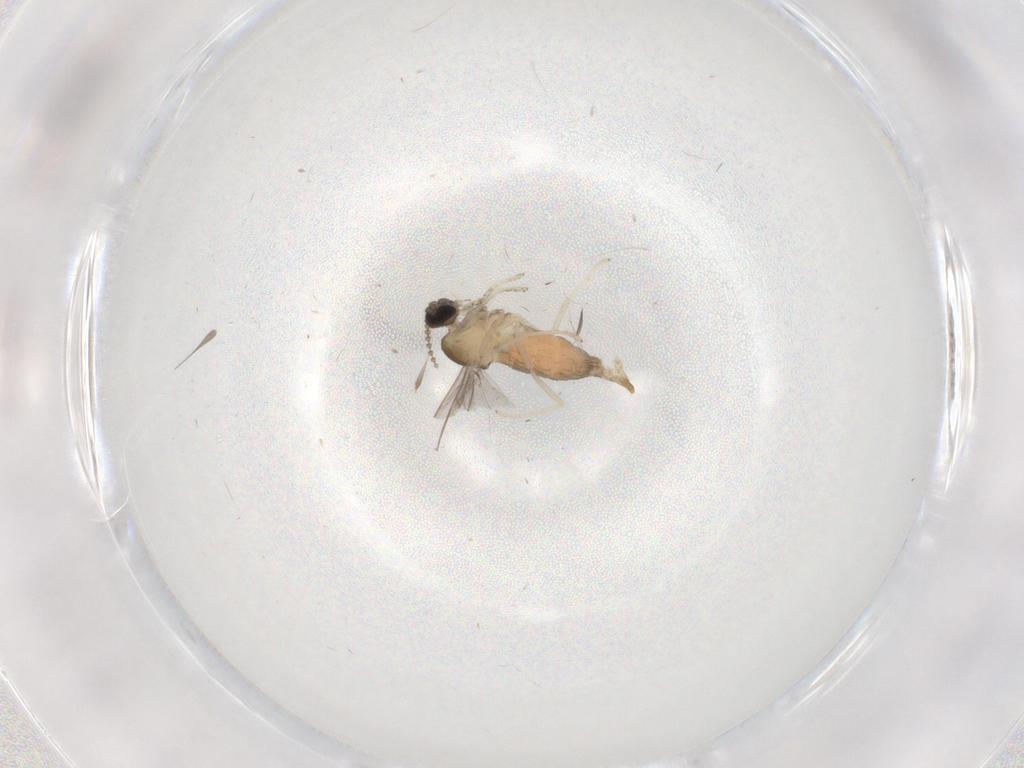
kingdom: Animalia
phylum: Arthropoda
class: Insecta
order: Diptera
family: Cecidomyiidae
